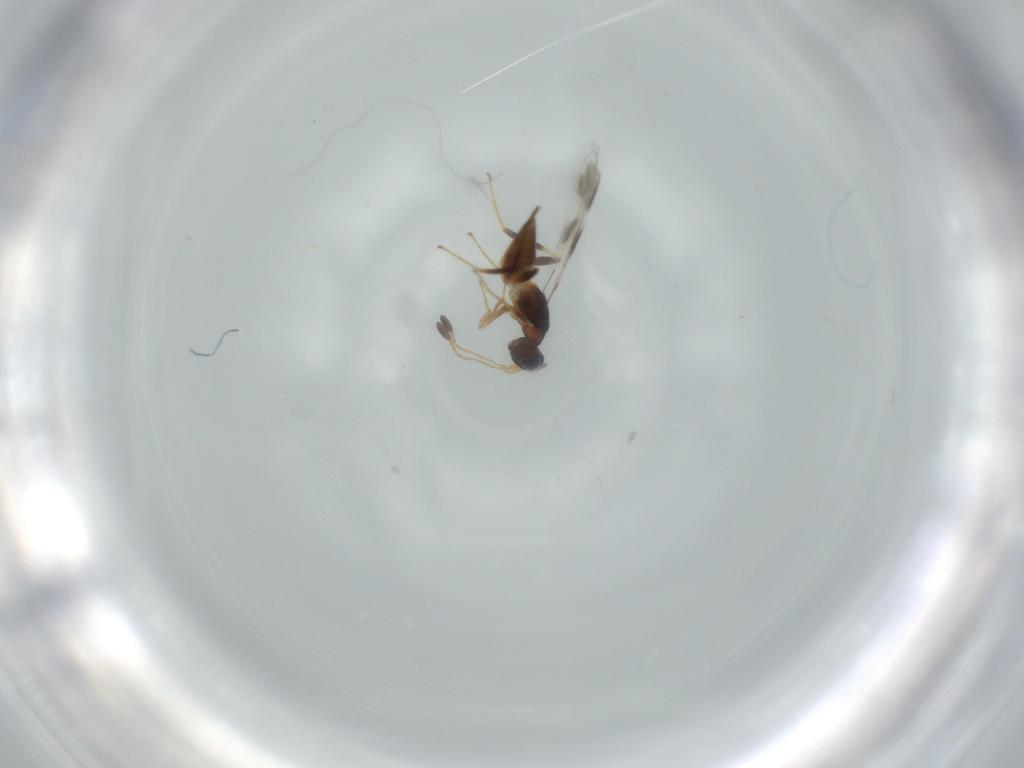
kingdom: Animalia
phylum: Arthropoda
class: Insecta
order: Hymenoptera
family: Mymaridae
